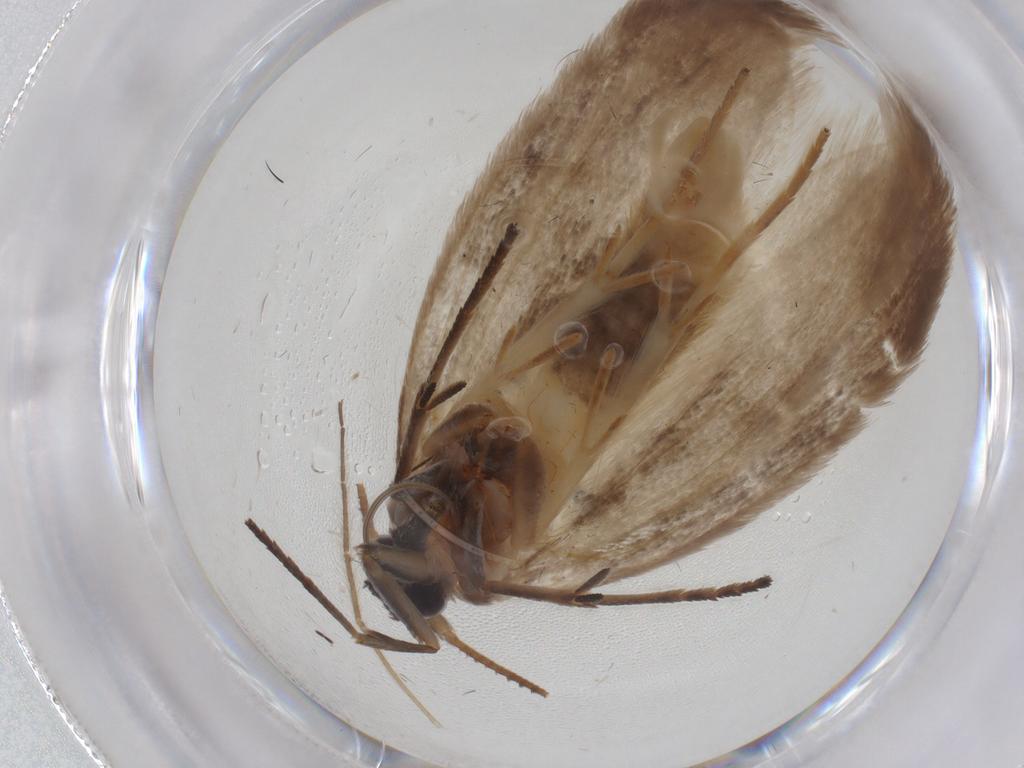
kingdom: Animalia
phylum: Arthropoda
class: Insecta
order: Lepidoptera
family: Roeslerstammiidae
